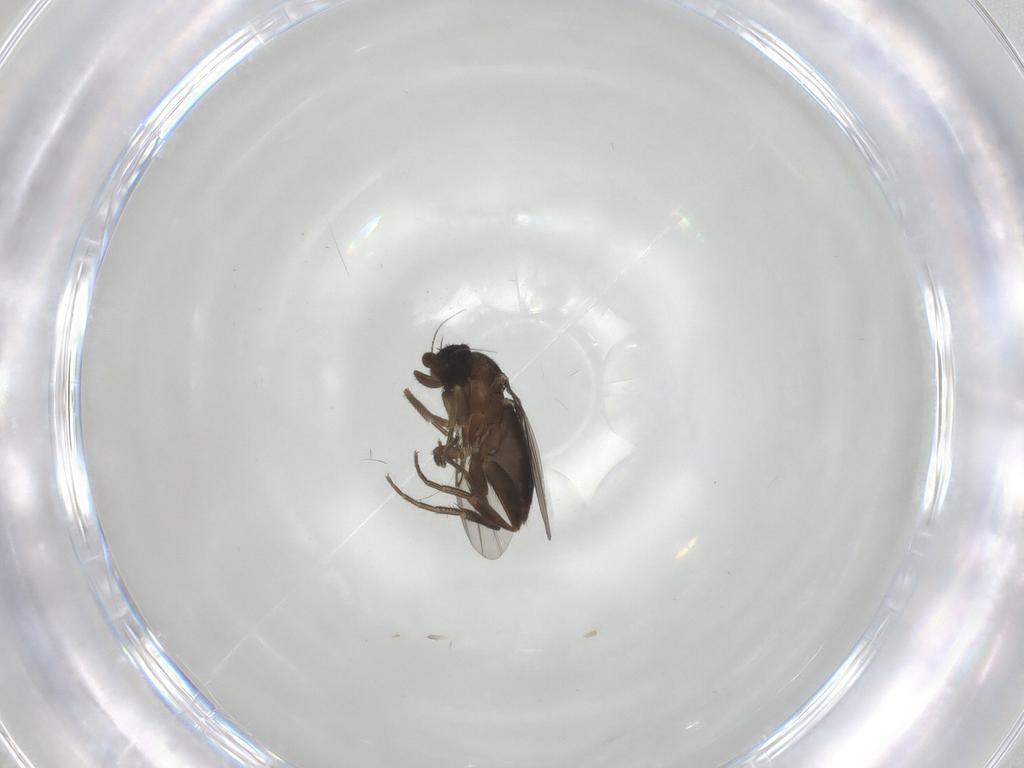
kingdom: Animalia
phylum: Arthropoda
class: Insecta
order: Diptera
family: Phoridae
